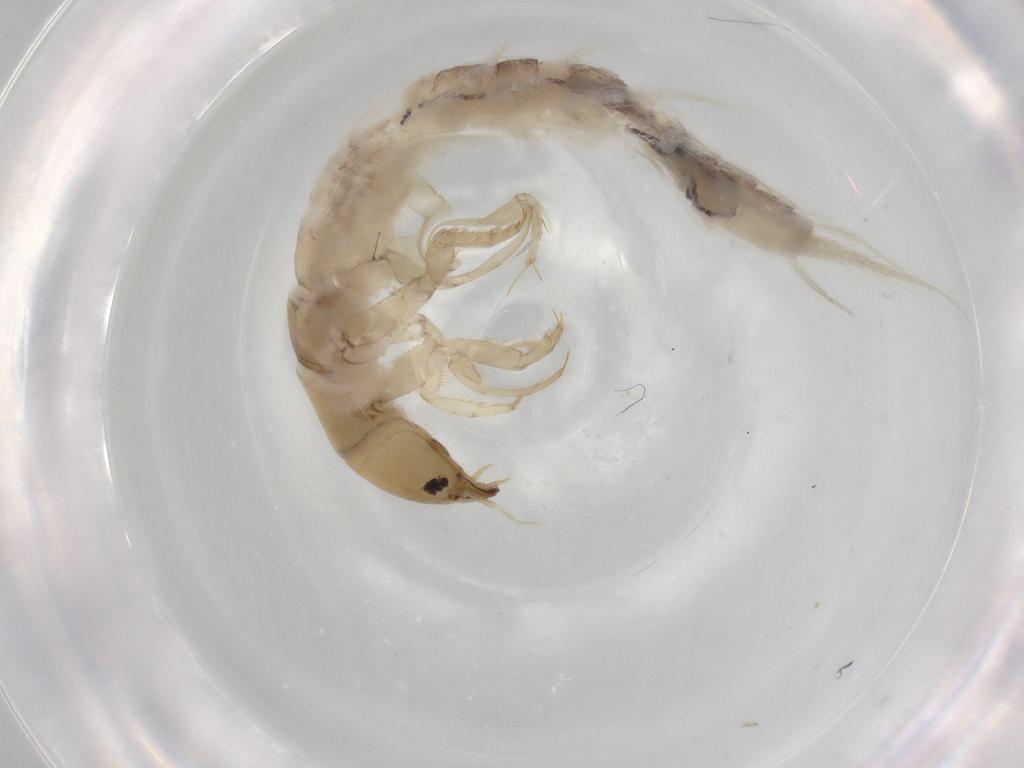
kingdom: Animalia
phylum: Arthropoda
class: Insecta
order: Megaloptera
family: Sialidae
